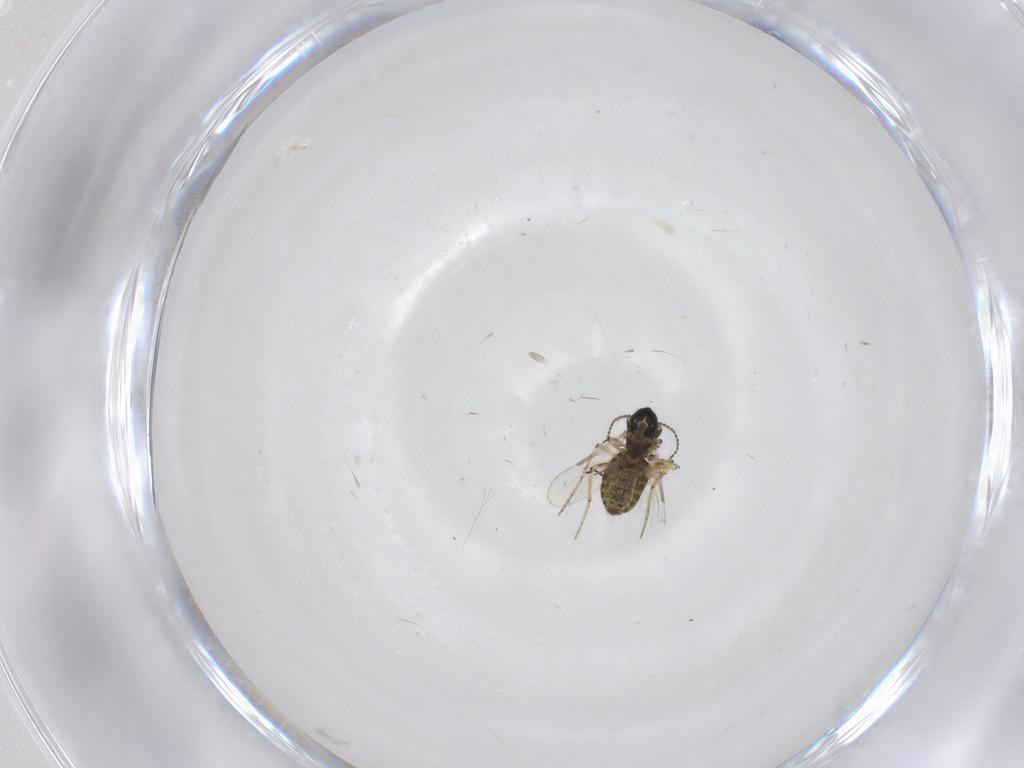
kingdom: Animalia
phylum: Arthropoda
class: Insecta
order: Diptera
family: Ceratopogonidae
